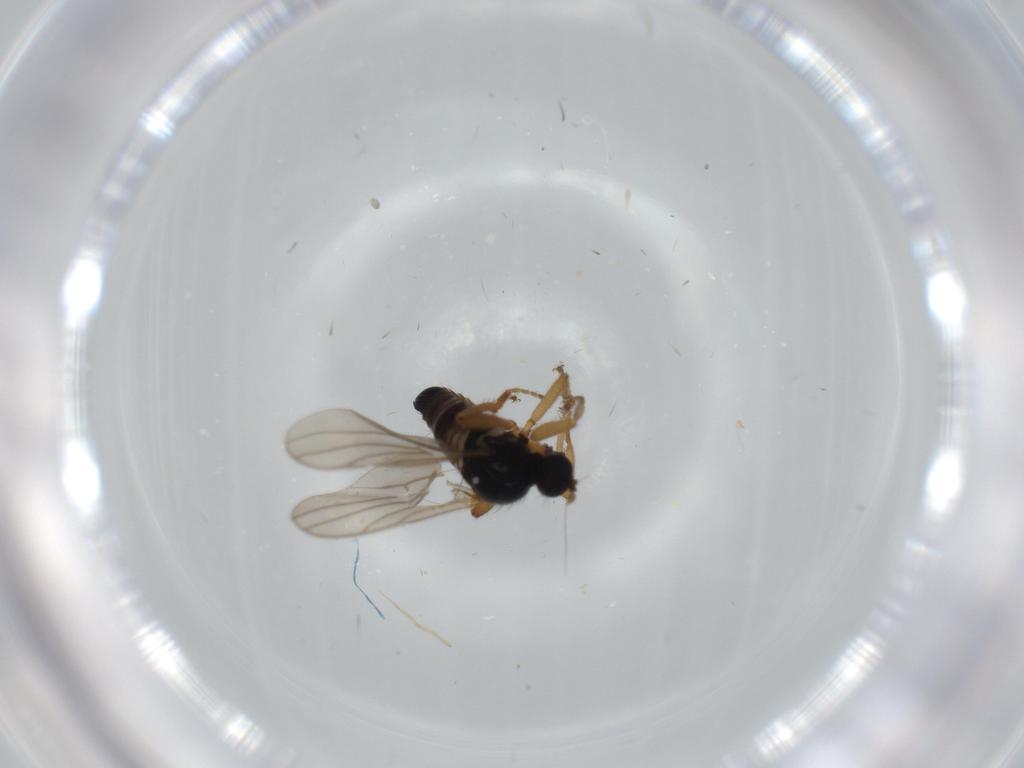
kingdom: Animalia
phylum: Arthropoda
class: Insecta
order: Diptera
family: Hybotidae
